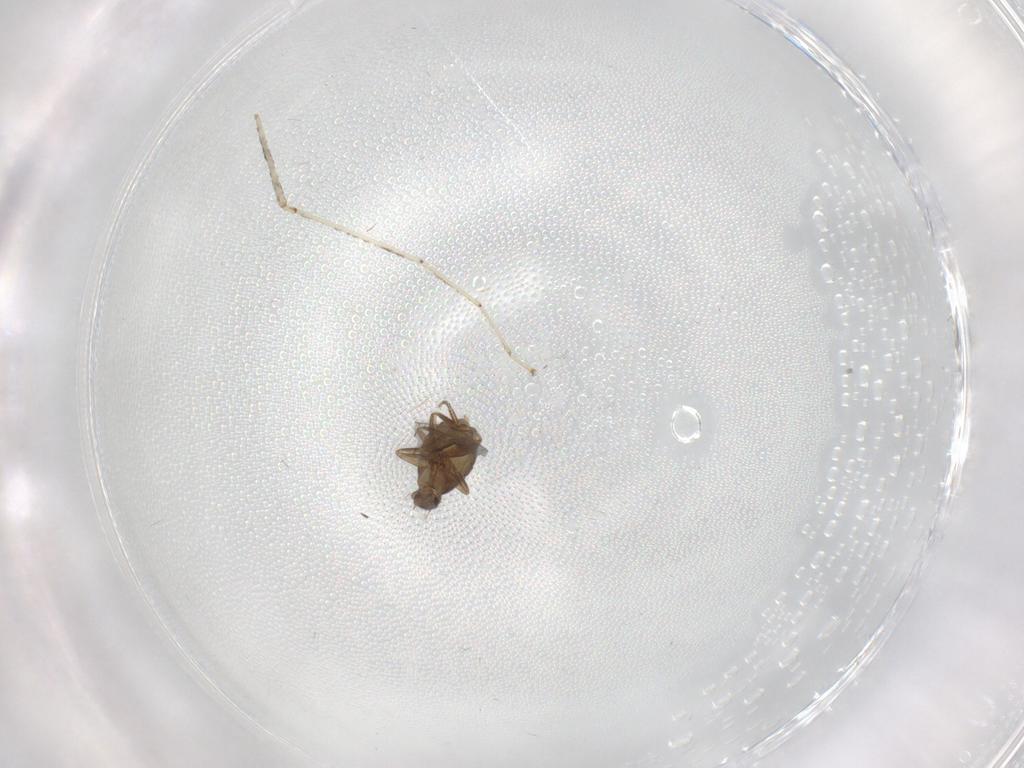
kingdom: Animalia
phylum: Arthropoda
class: Insecta
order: Diptera
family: Phoridae
